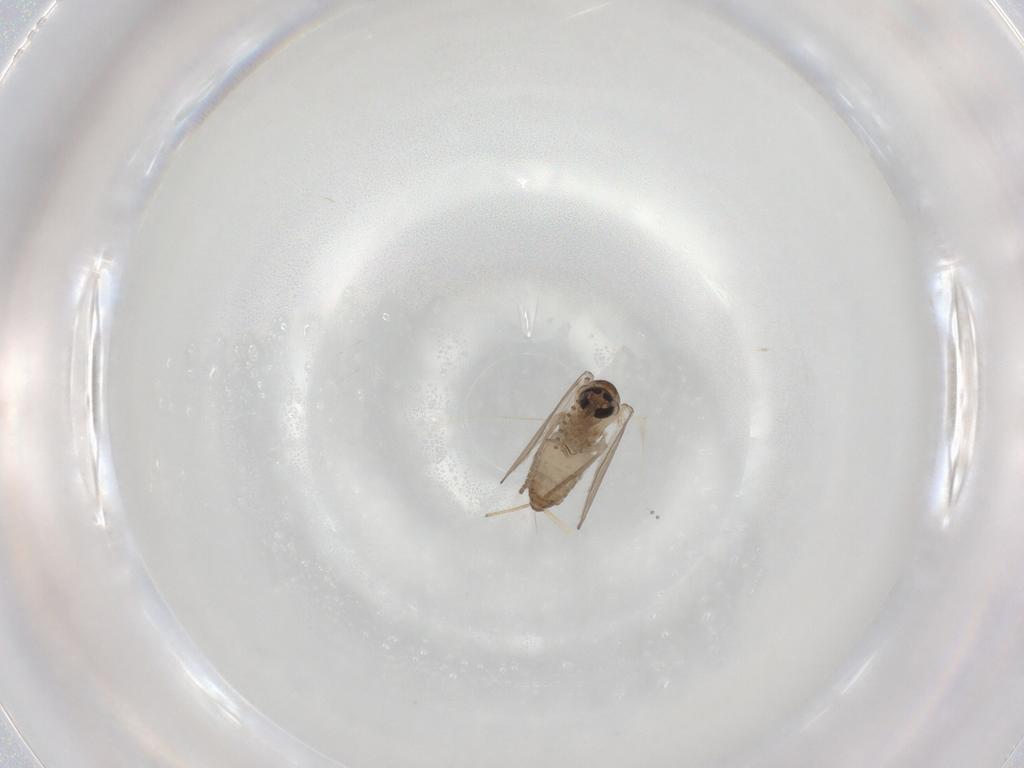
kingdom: Animalia
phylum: Arthropoda
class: Insecta
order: Diptera
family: Psychodidae
